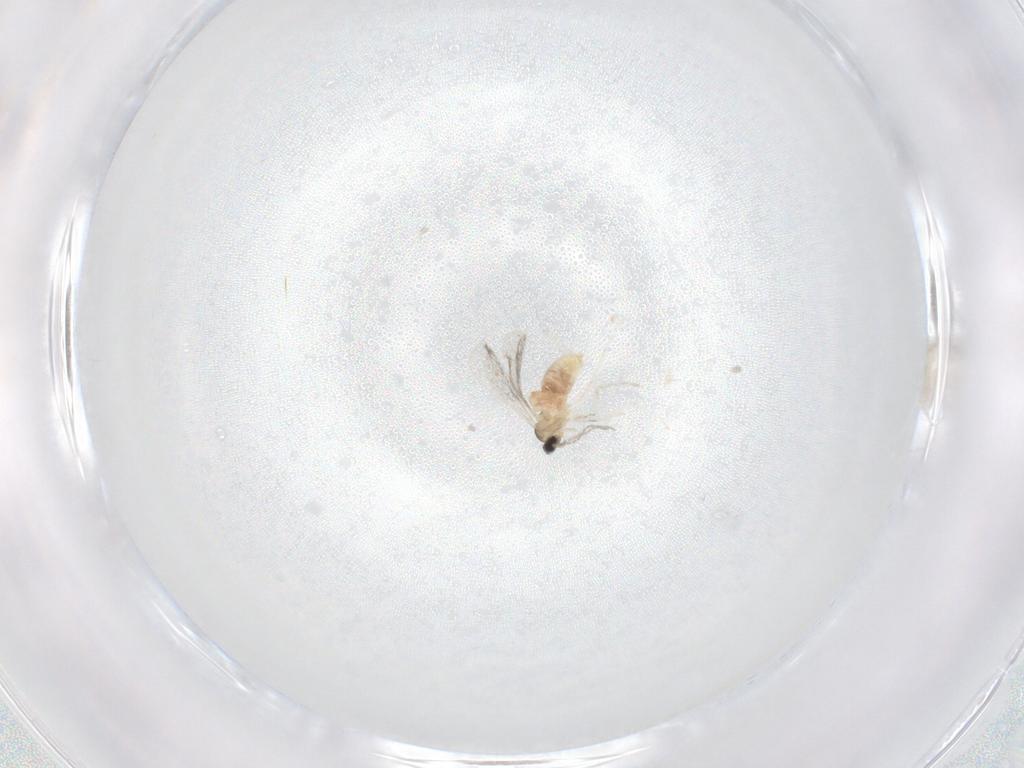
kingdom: Animalia
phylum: Arthropoda
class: Insecta
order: Diptera
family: Cecidomyiidae
